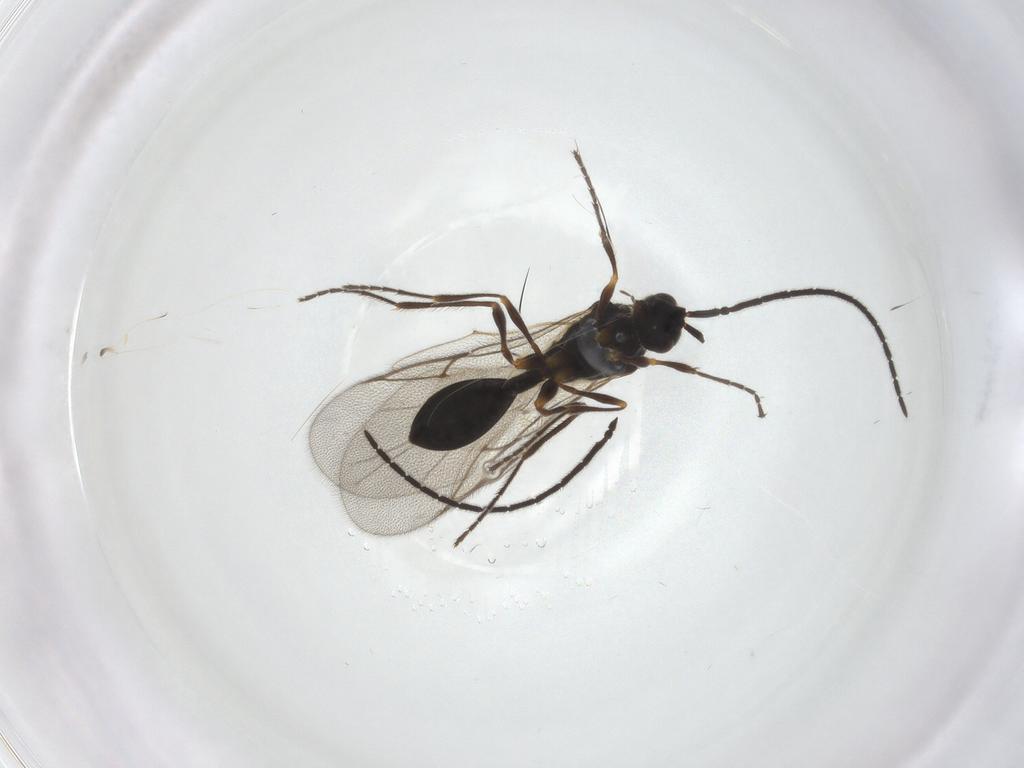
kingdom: Animalia
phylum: Arthropoda
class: Insecta
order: Hymenoptera
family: Diapriidae
